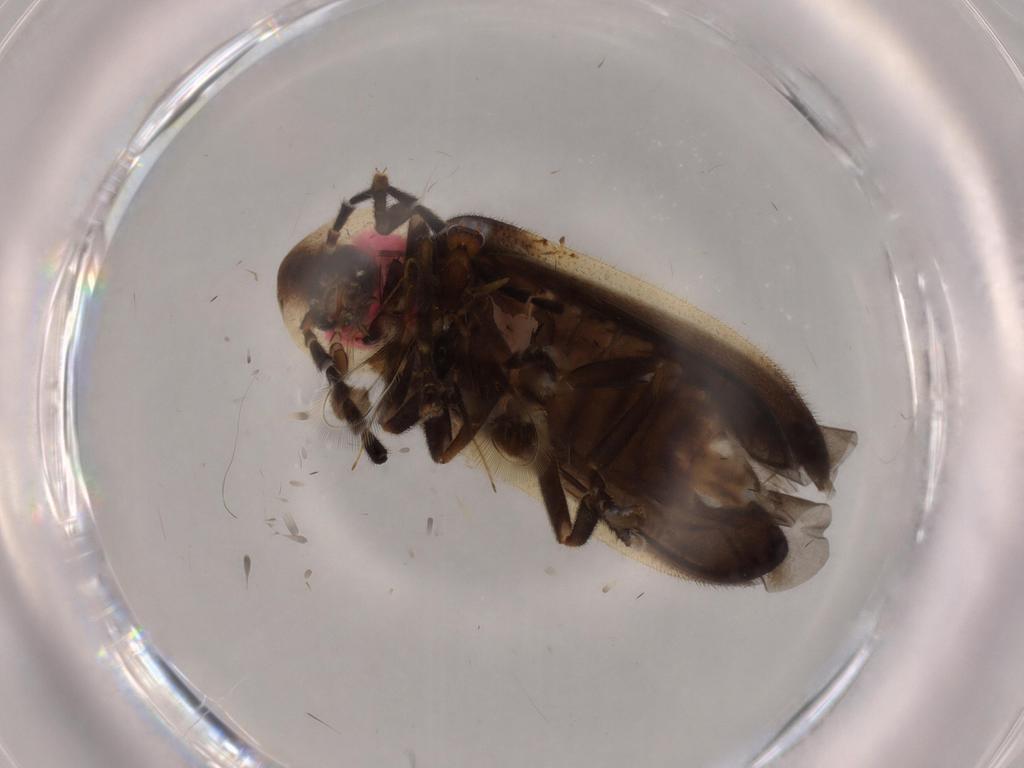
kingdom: Animalia
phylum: Arthropoda
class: Insecta
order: Coleoptera
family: Lampyridae
